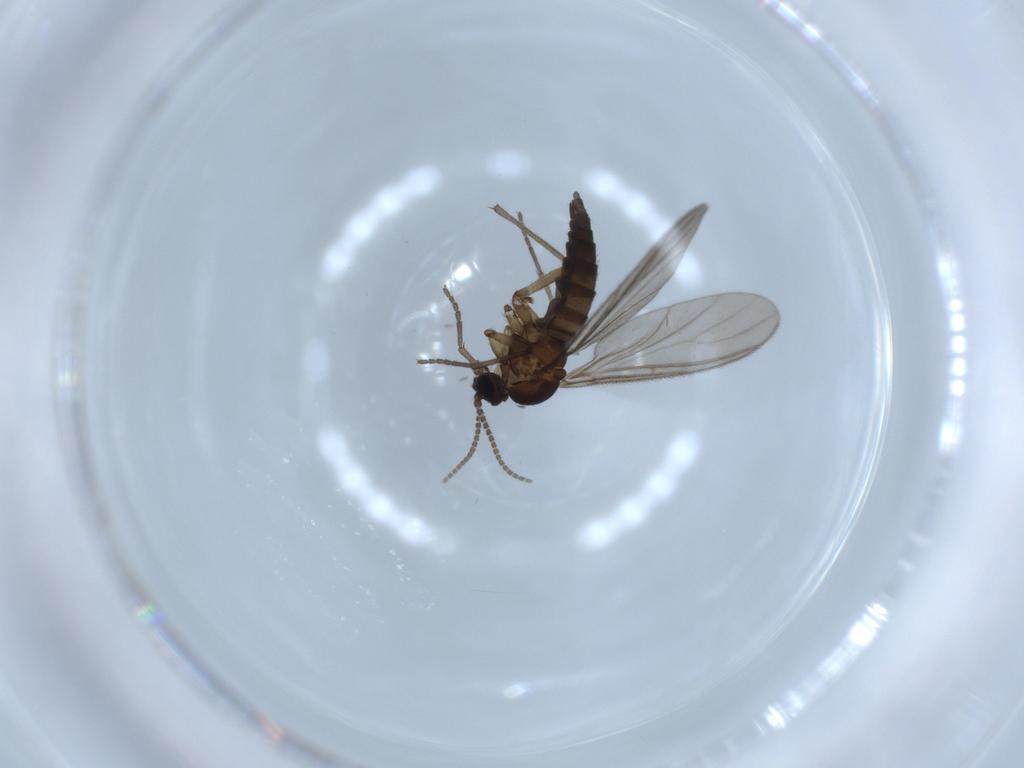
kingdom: Animalia
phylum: Arthropoda
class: Insecta
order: Diptera
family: Sciaridae
